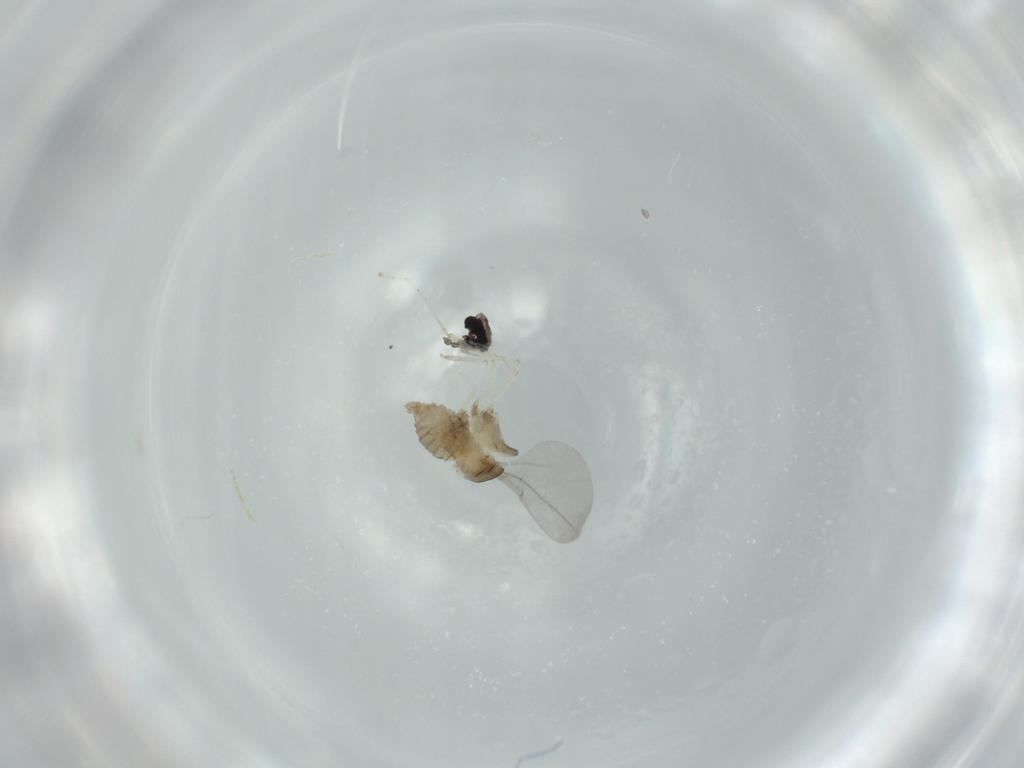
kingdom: Animalia
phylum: Arthropoda
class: Insecta
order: Diptera
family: Cecidomyiidae
